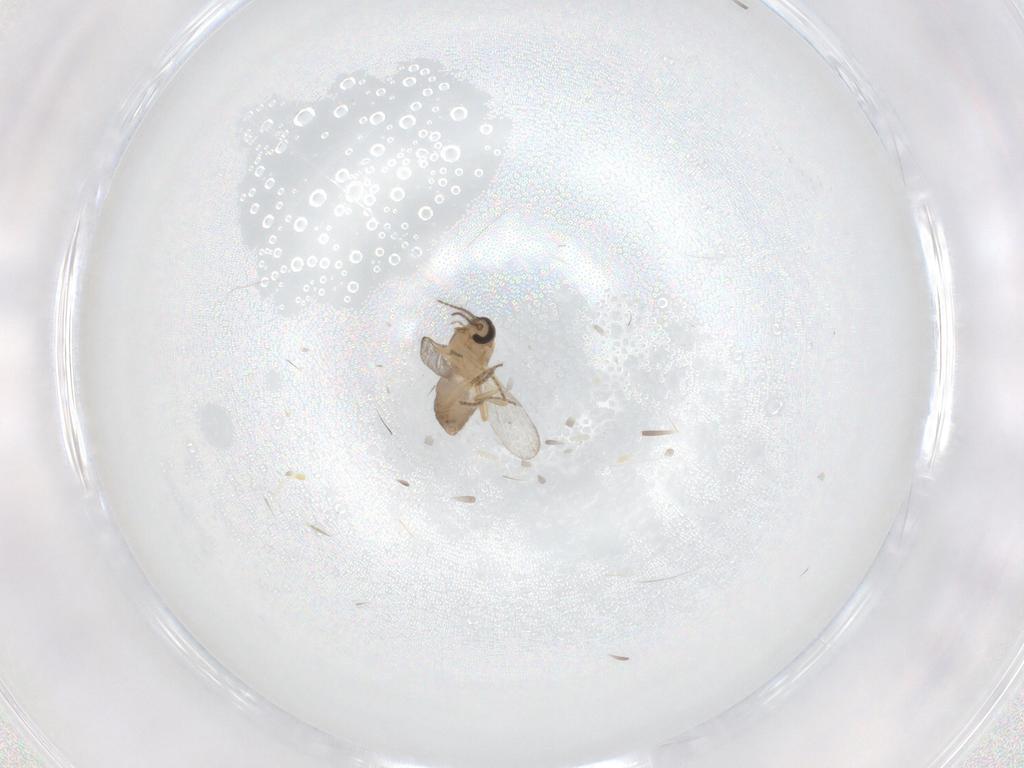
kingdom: Animalia
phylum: Arthropoda
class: Insecta
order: Diptera
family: Ceratopogonidae
